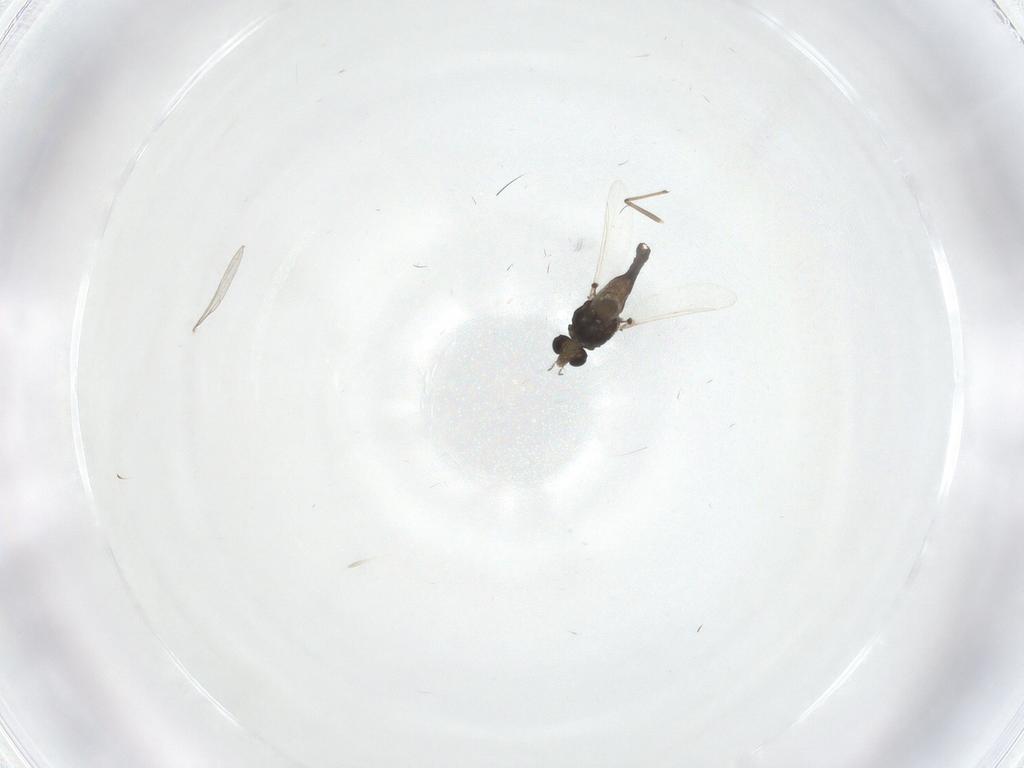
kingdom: Animalia
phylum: Arthropoda
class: Insecta
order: Diptera
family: Chironomidae
